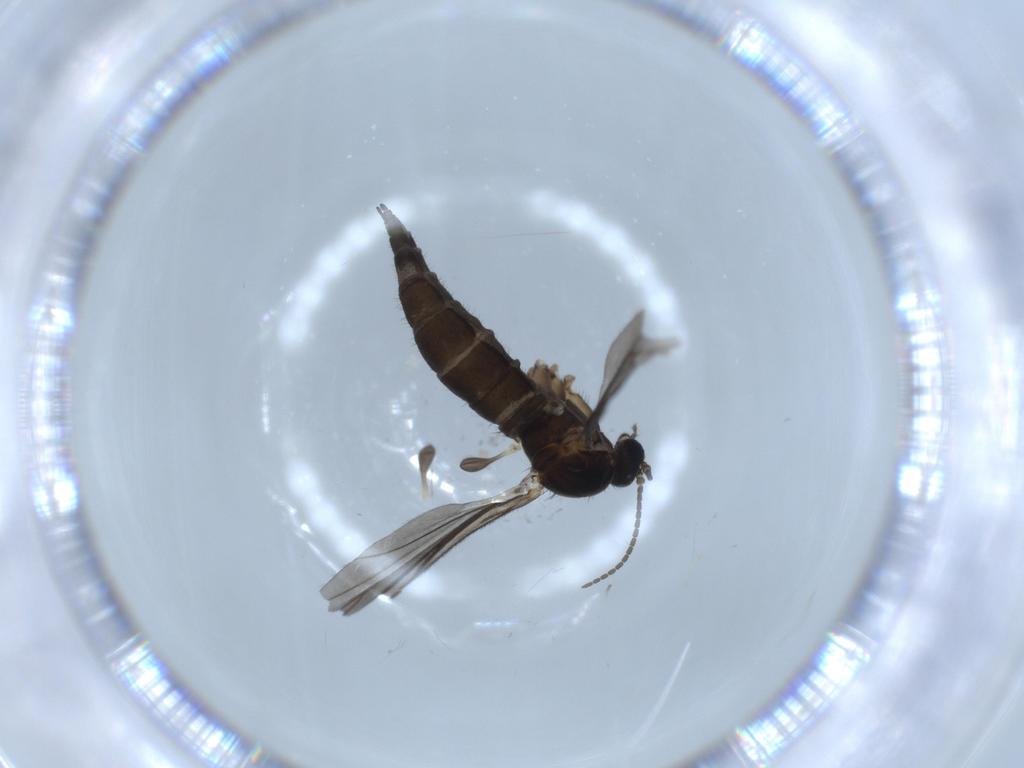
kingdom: Animalia
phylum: Arthropoda
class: Insecta
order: Diptera
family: Sciaridae
